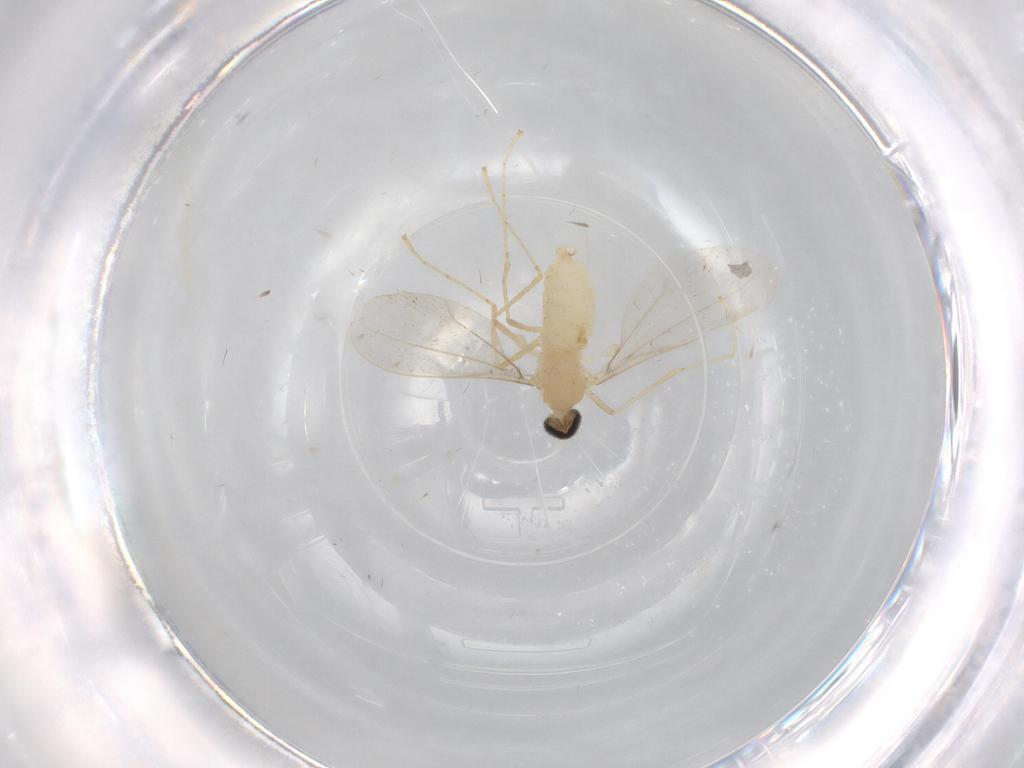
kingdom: Animalia
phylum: Arthropoda
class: Insecta
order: Diptera
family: Cecidomyiidae
